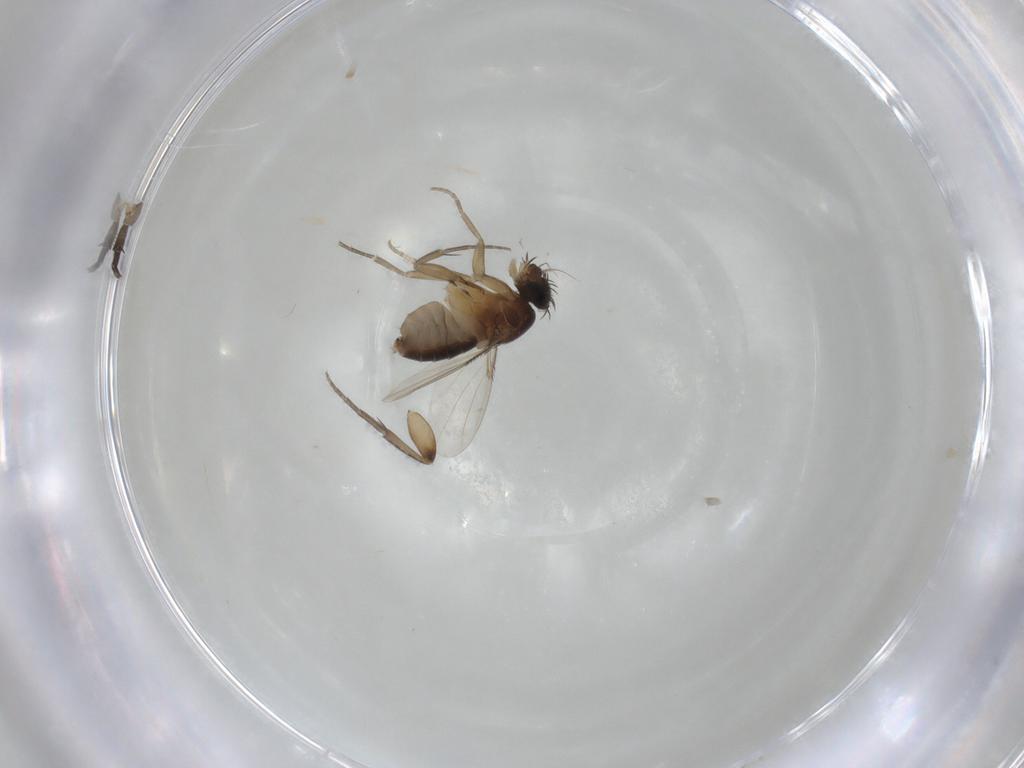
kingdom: Animalia
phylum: Arthropoda
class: Insecta
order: Diptera
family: Phoridae
